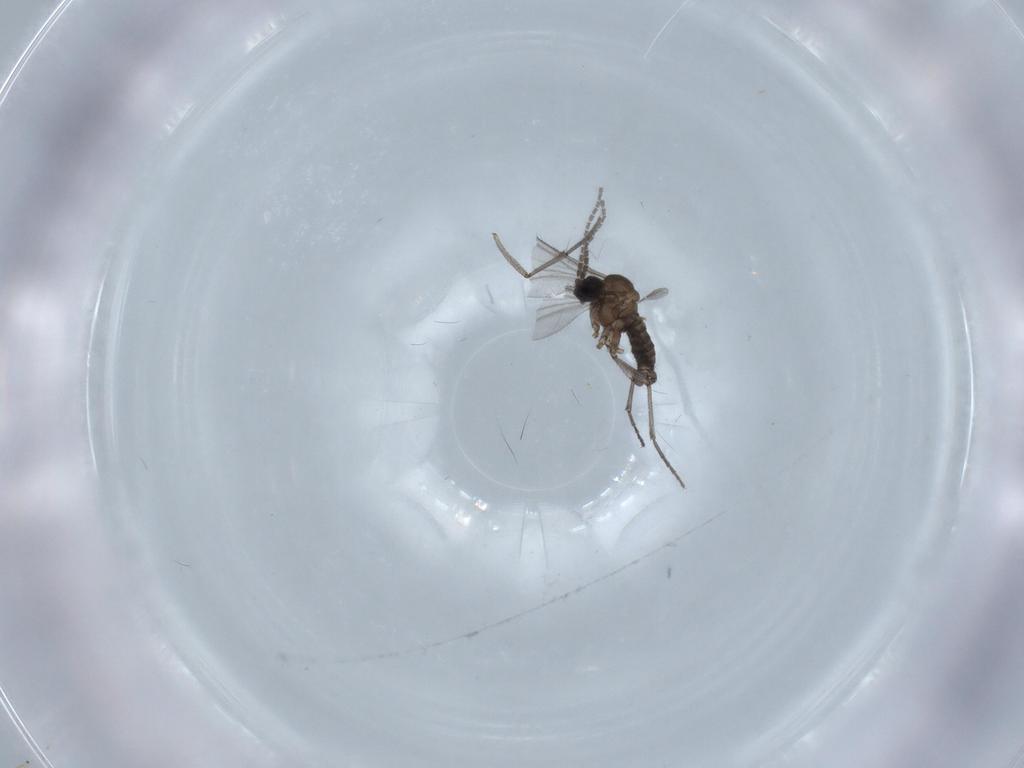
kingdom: Animalia
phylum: Arthropoda
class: Insecta
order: Diptera
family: Sciaridae
